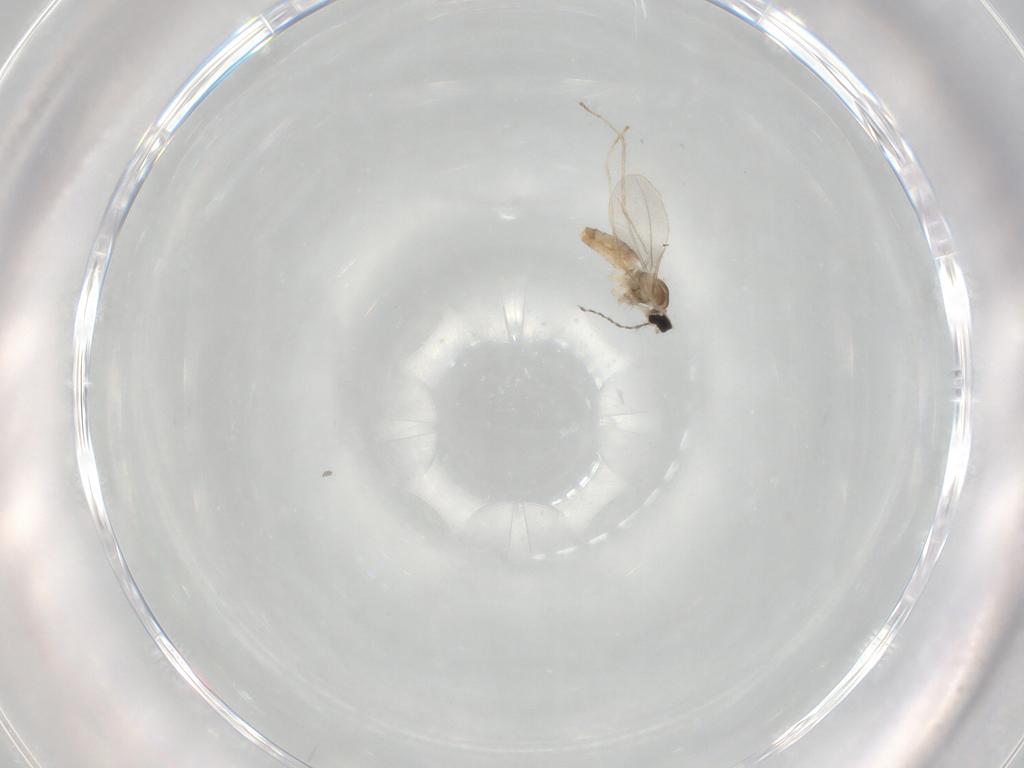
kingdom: Animalia
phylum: Arthropoda
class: Insecta
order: Diptera
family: Cecidomyiidae
